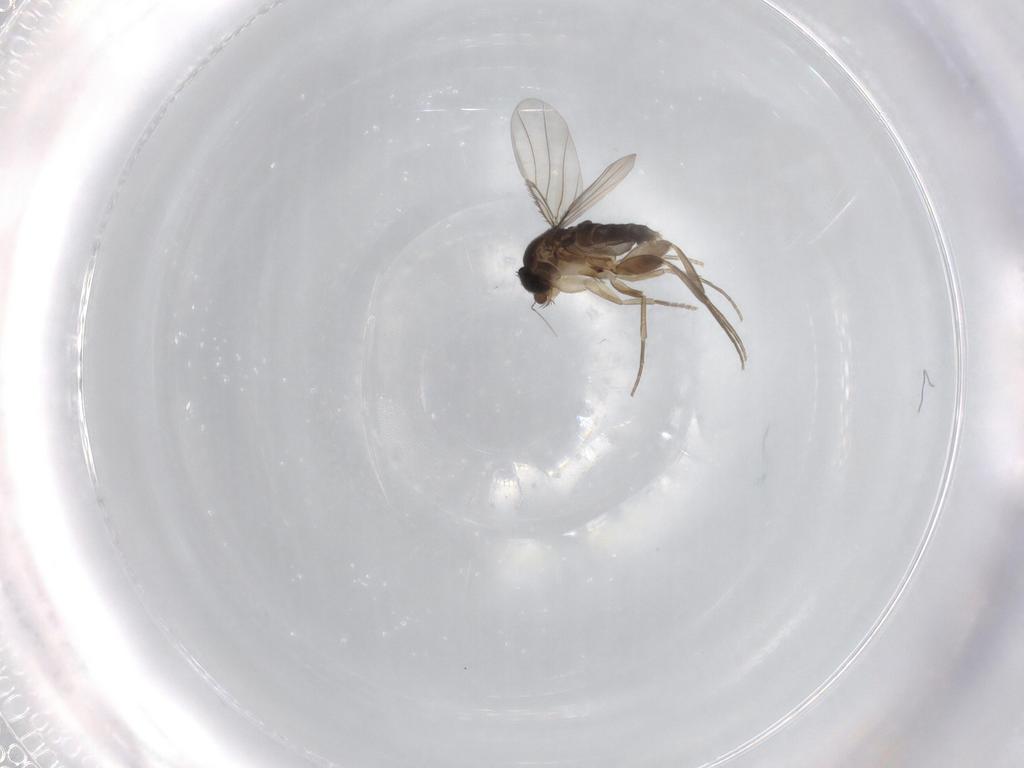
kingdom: Animalia
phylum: Arthropoda
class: Insecta
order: Diptera
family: Phoridae
